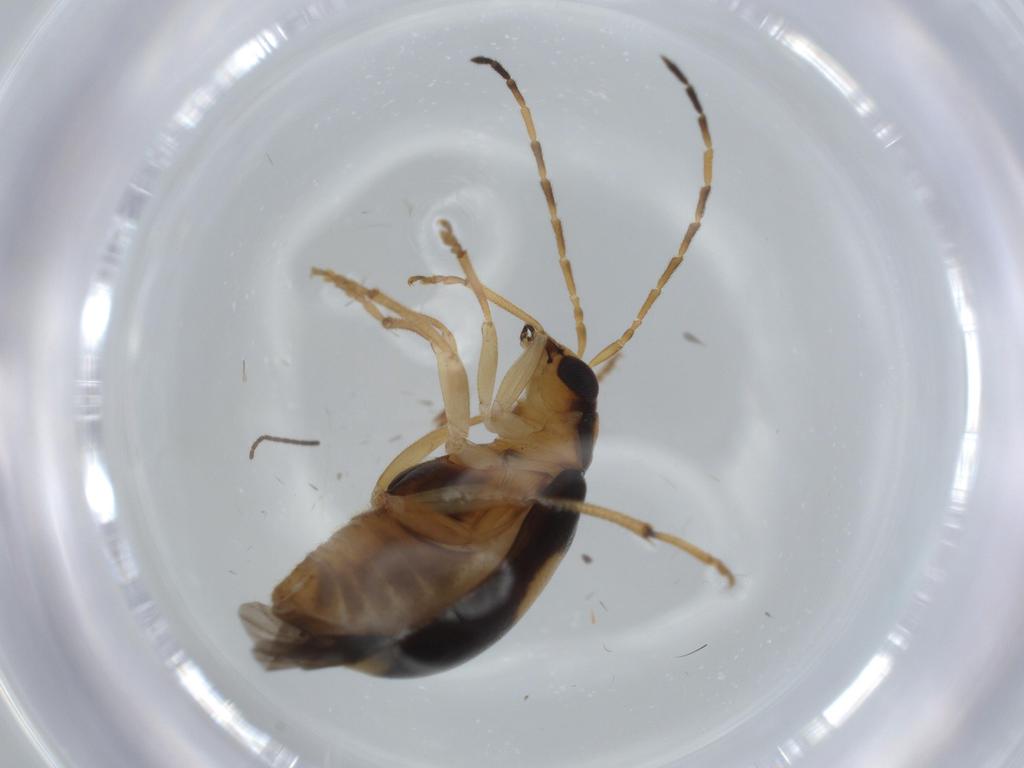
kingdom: Animalia
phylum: Arthropoda
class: Insecta
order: Coleoptera
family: Chrysomelidae
